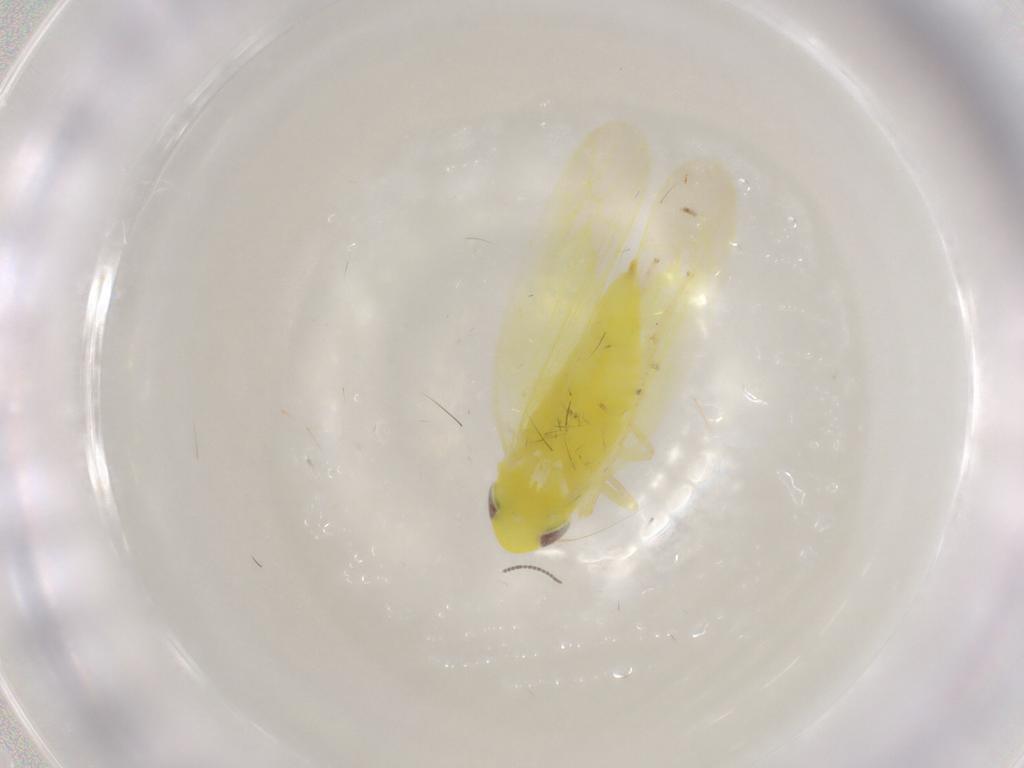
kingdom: Animalia
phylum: Arthropoda
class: Insecta
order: Hemiptera
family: Cicadellidae
